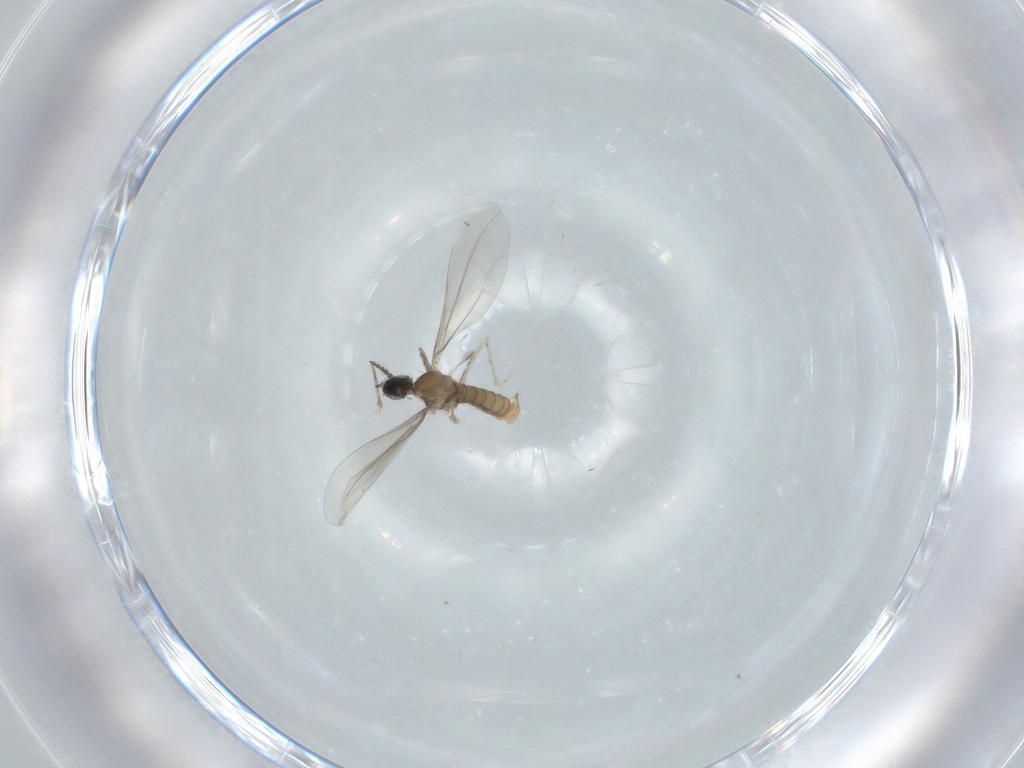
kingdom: Animalia
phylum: Arthropoda
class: Insecta
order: Diptera
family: Cecidomyiidae
